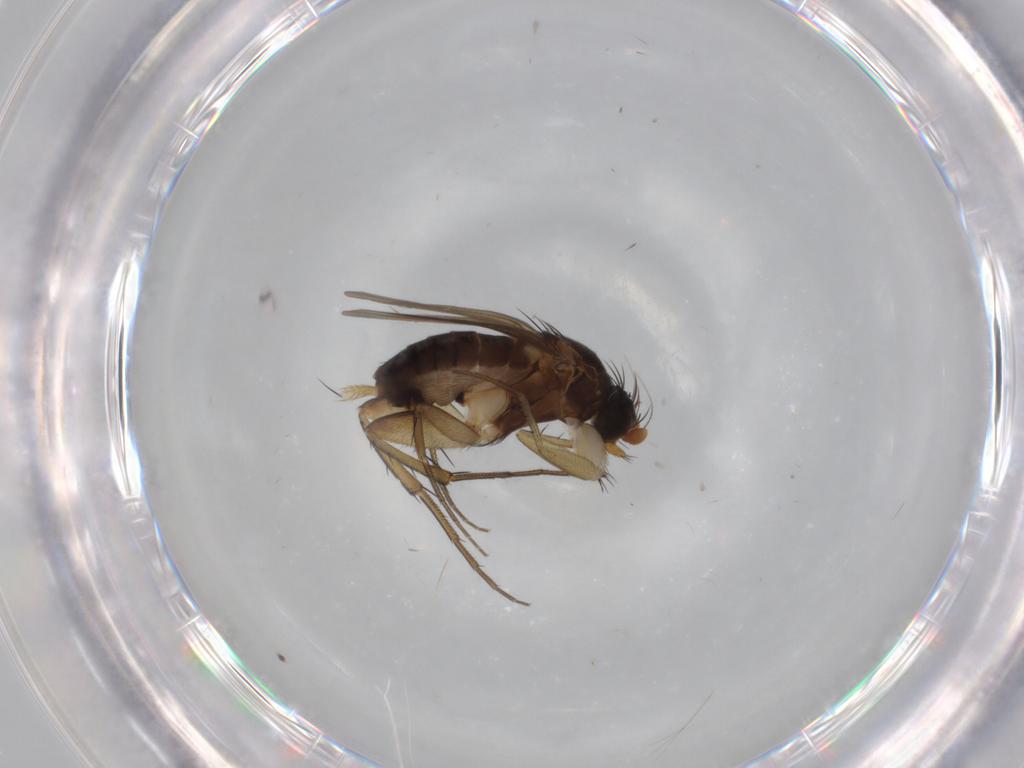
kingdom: Animalia
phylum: Arthropoda
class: Insecta
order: Diptera
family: Phoridae
